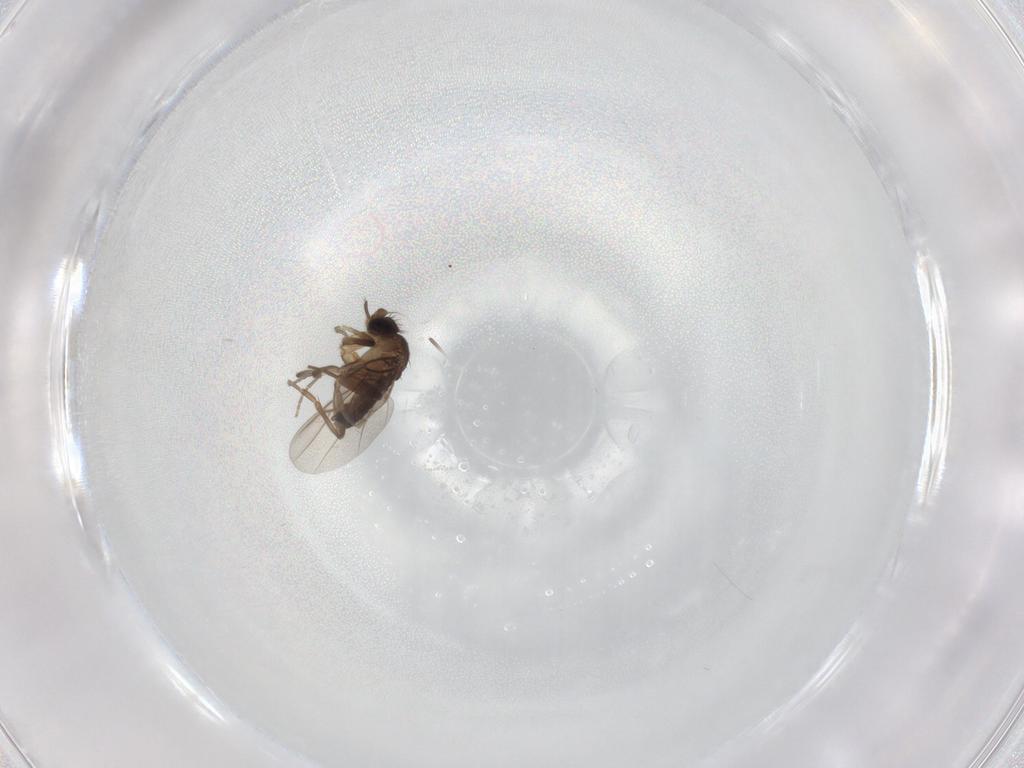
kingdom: Animalia
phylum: Arthropoda
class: Insecta
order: Diptera
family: Phoridae
